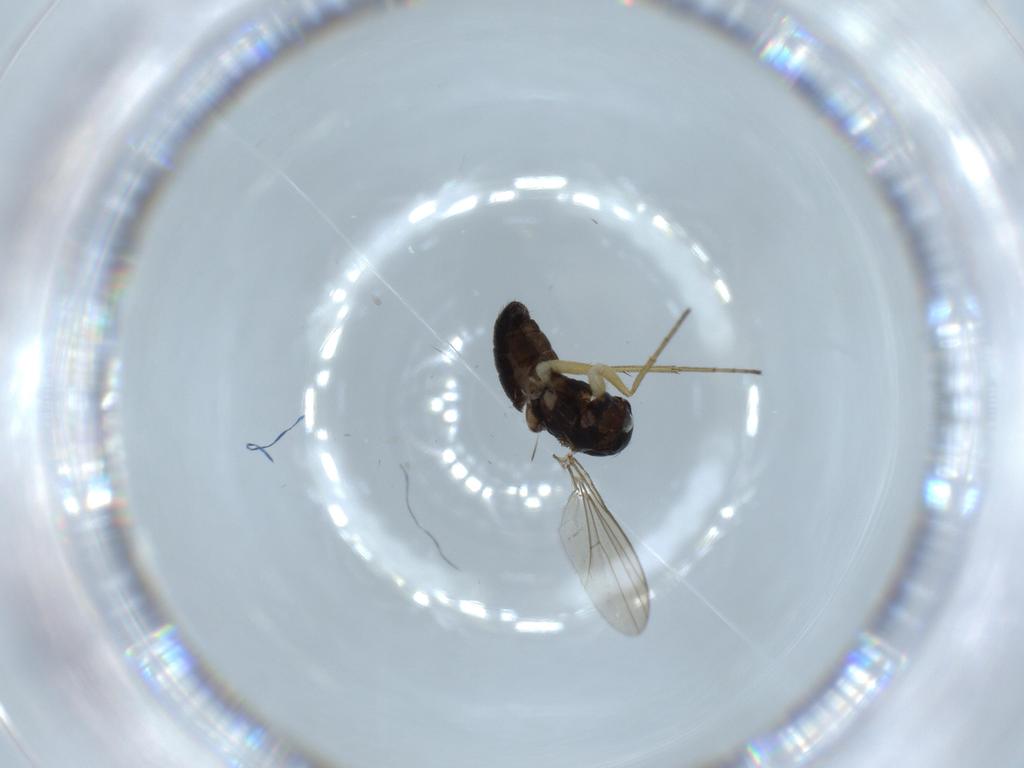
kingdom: Animalia
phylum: Arthropoda
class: Insecta
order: Diptera
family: Dolichopodidae
